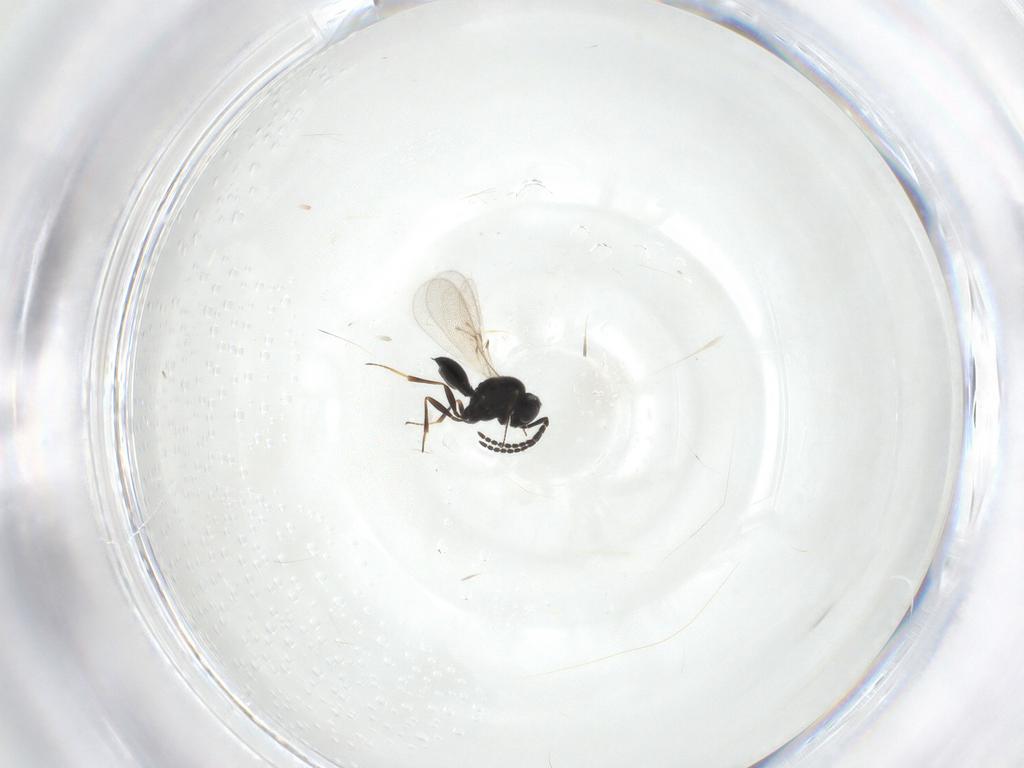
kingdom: Animalia
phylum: Arthropoda
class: Insecta
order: Hymenoptera
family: Scelionidae
